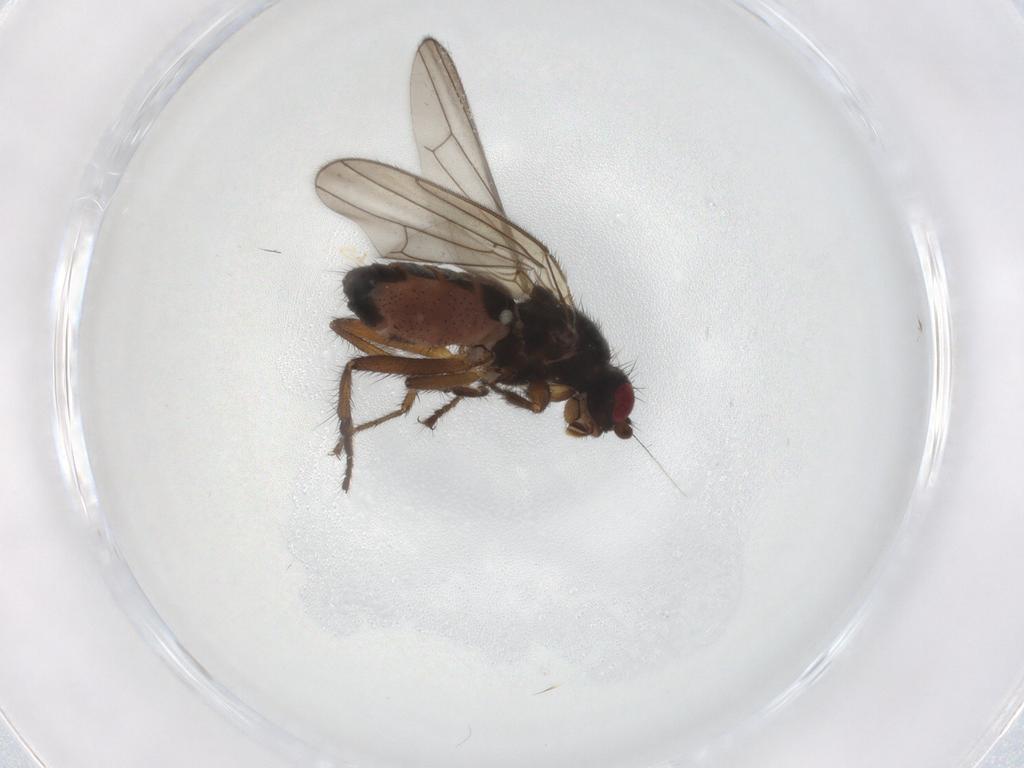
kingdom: Animalia
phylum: Arthropoda
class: Insecta
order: Diptera
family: Sphaeroceridae
